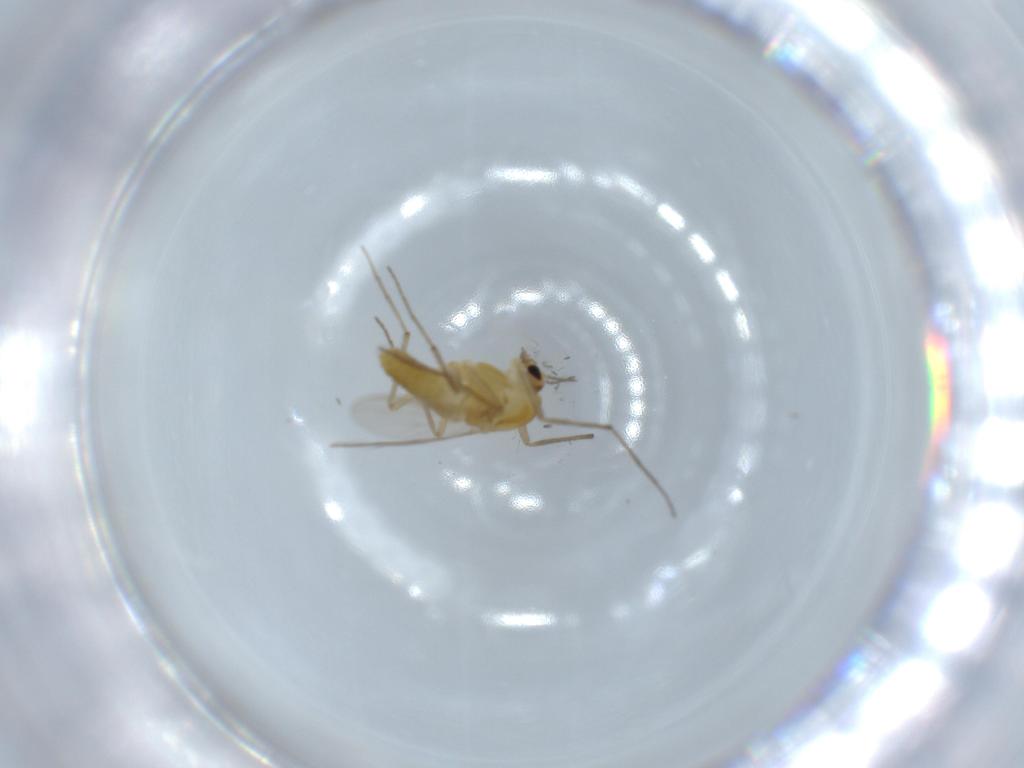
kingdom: Animalia
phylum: Arthropoda
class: Insecta
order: Diptera
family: Chironomidae
